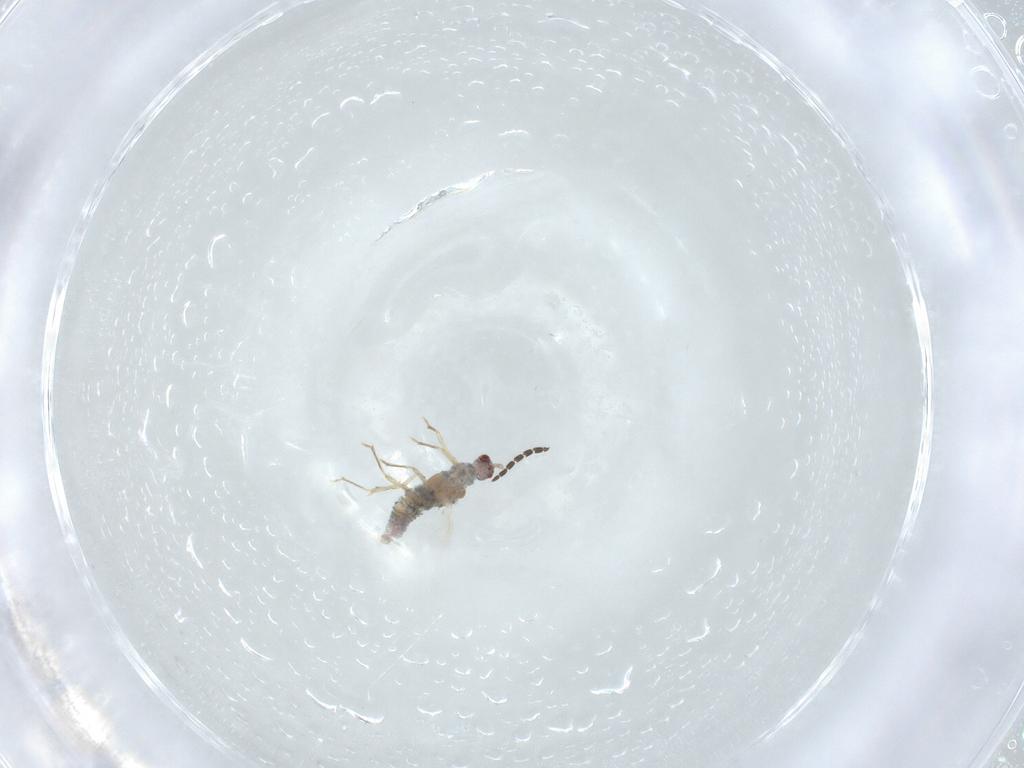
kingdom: Animalia
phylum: Arthropoda
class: Insecta
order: Hymenoptera
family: Aphelinidae
